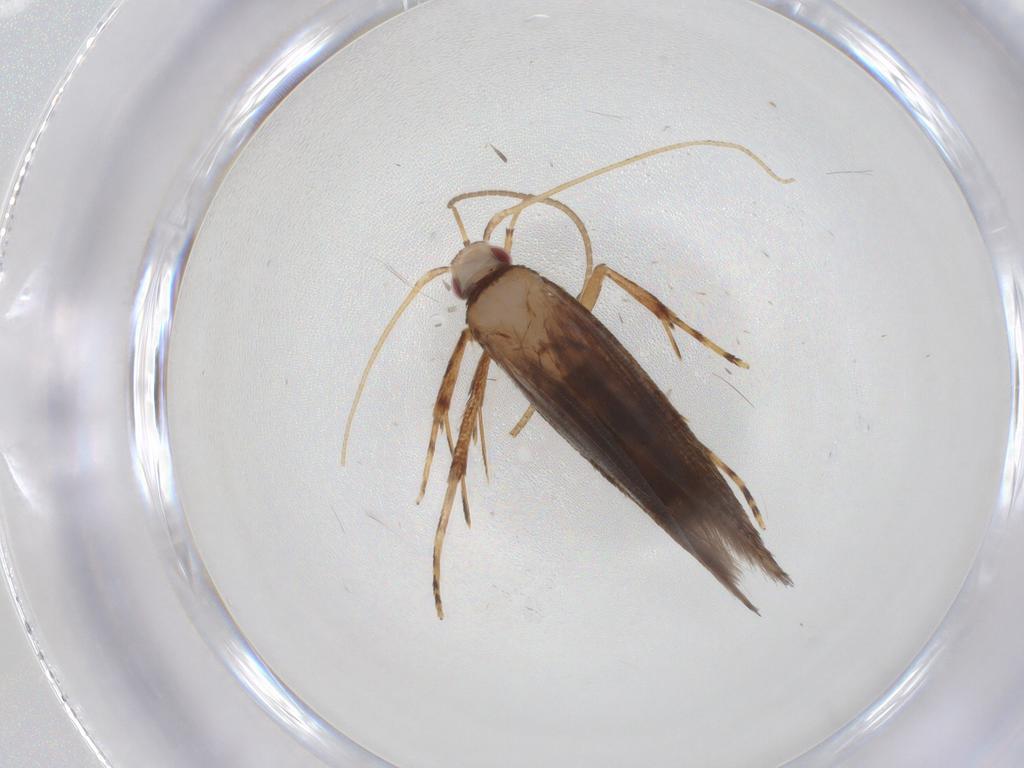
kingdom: Animalia
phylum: Arthropoda
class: Insecta
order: Lepidoptera
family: Cosmopterigidae
